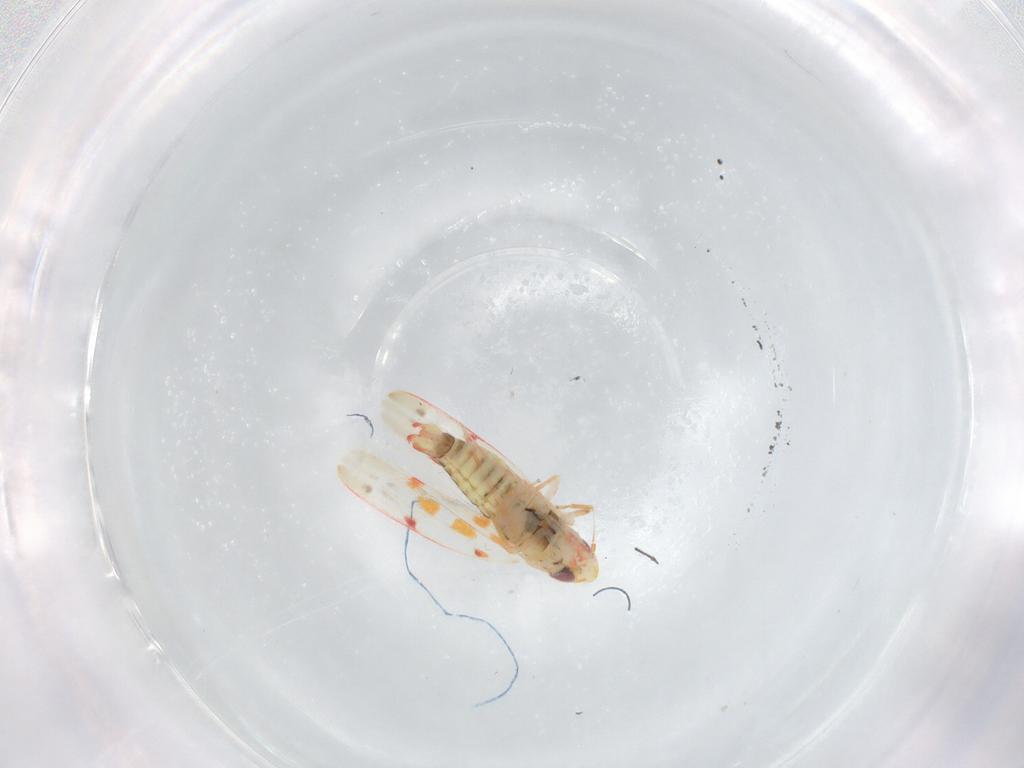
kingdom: Animalia
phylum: Arthropoda
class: Insecta
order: Hemiptera
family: Cicadellidae
